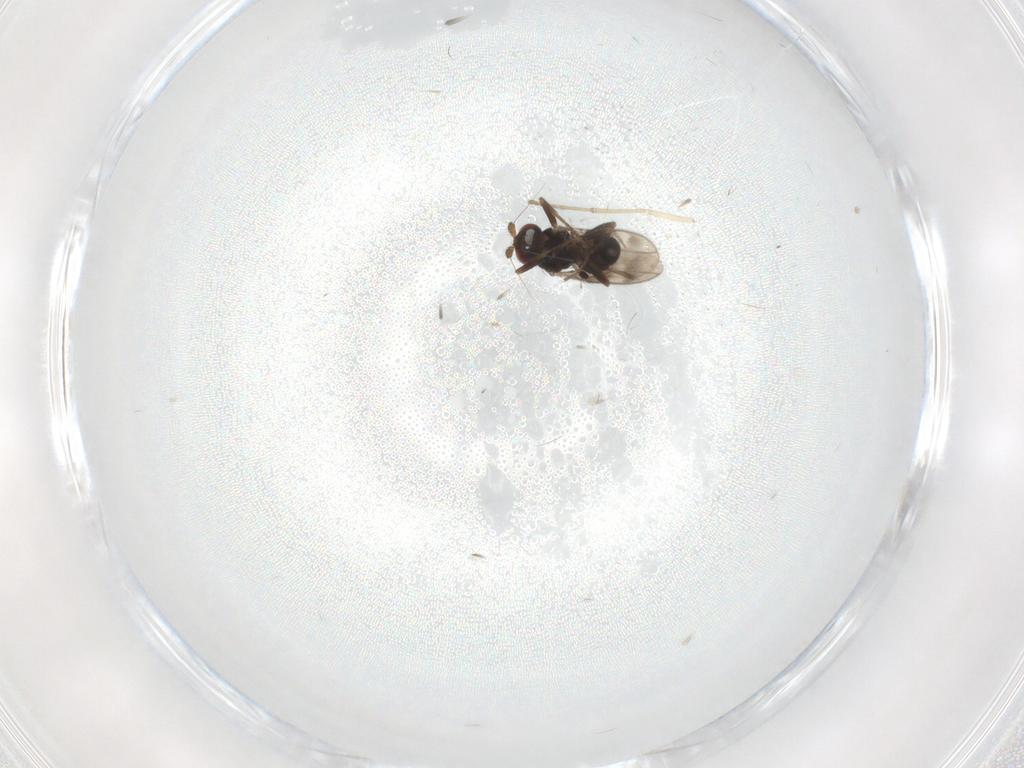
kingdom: Animalia
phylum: Arthropoda
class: Insecta
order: Diptera
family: Psychodidae
